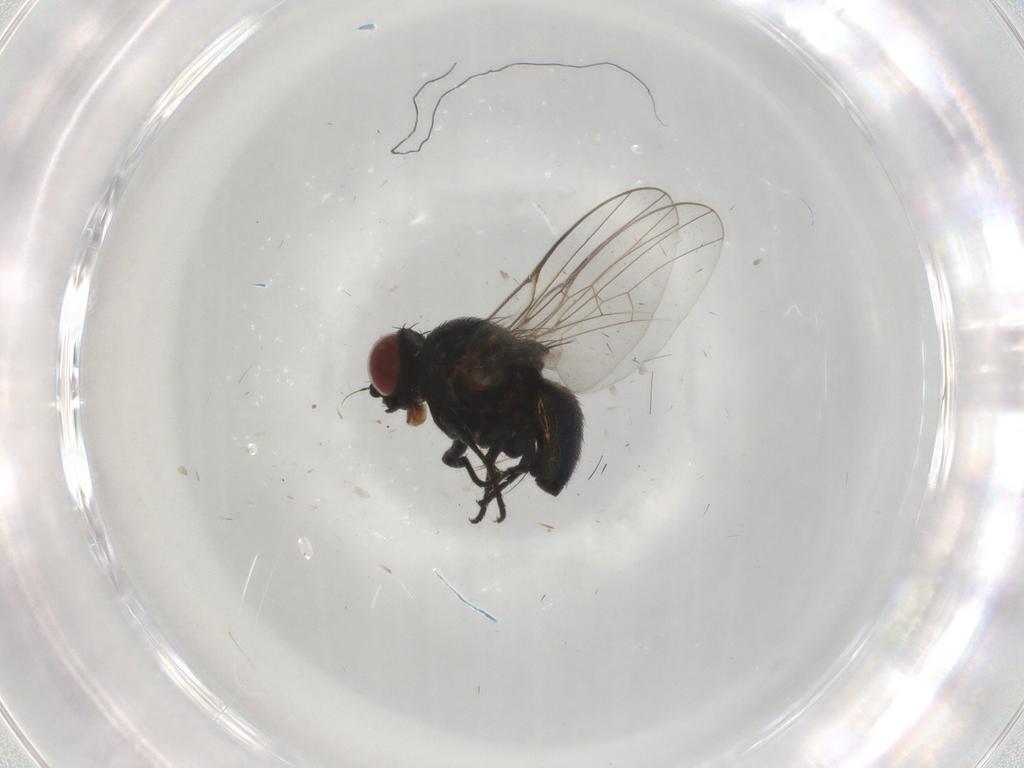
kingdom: Animalia
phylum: Arthropoda
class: Insecta
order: Diptera
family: Agromyzidae
